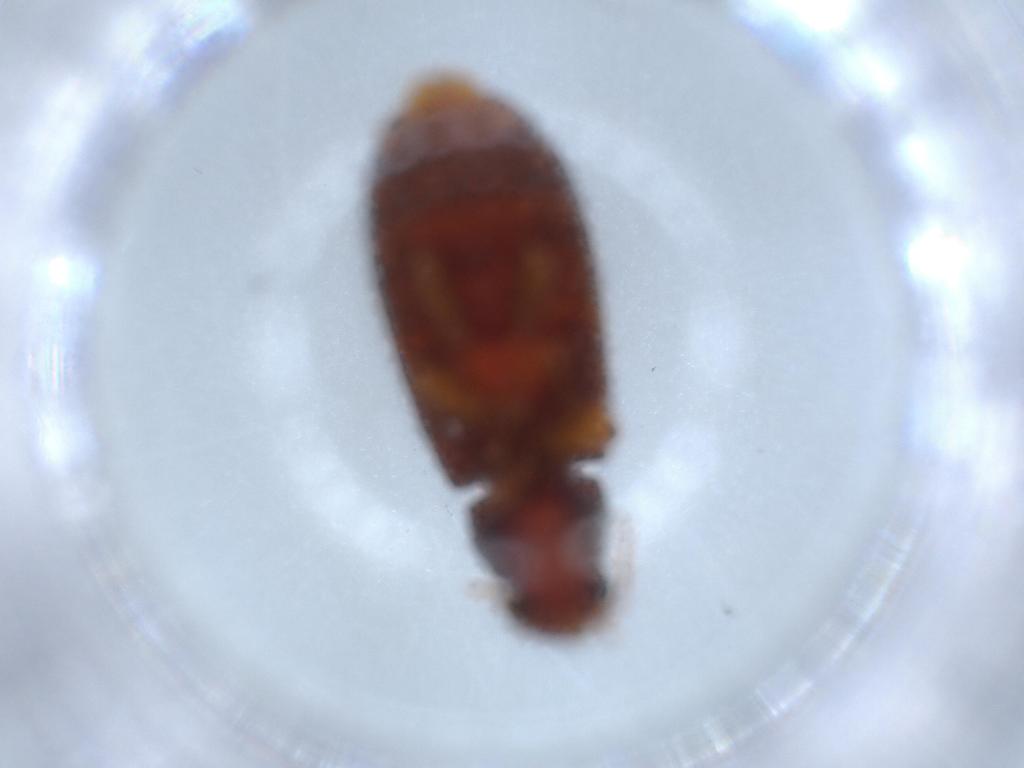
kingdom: Animalia
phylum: Arthropoda
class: Insecta
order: Coleoptera
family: Mycteridae
